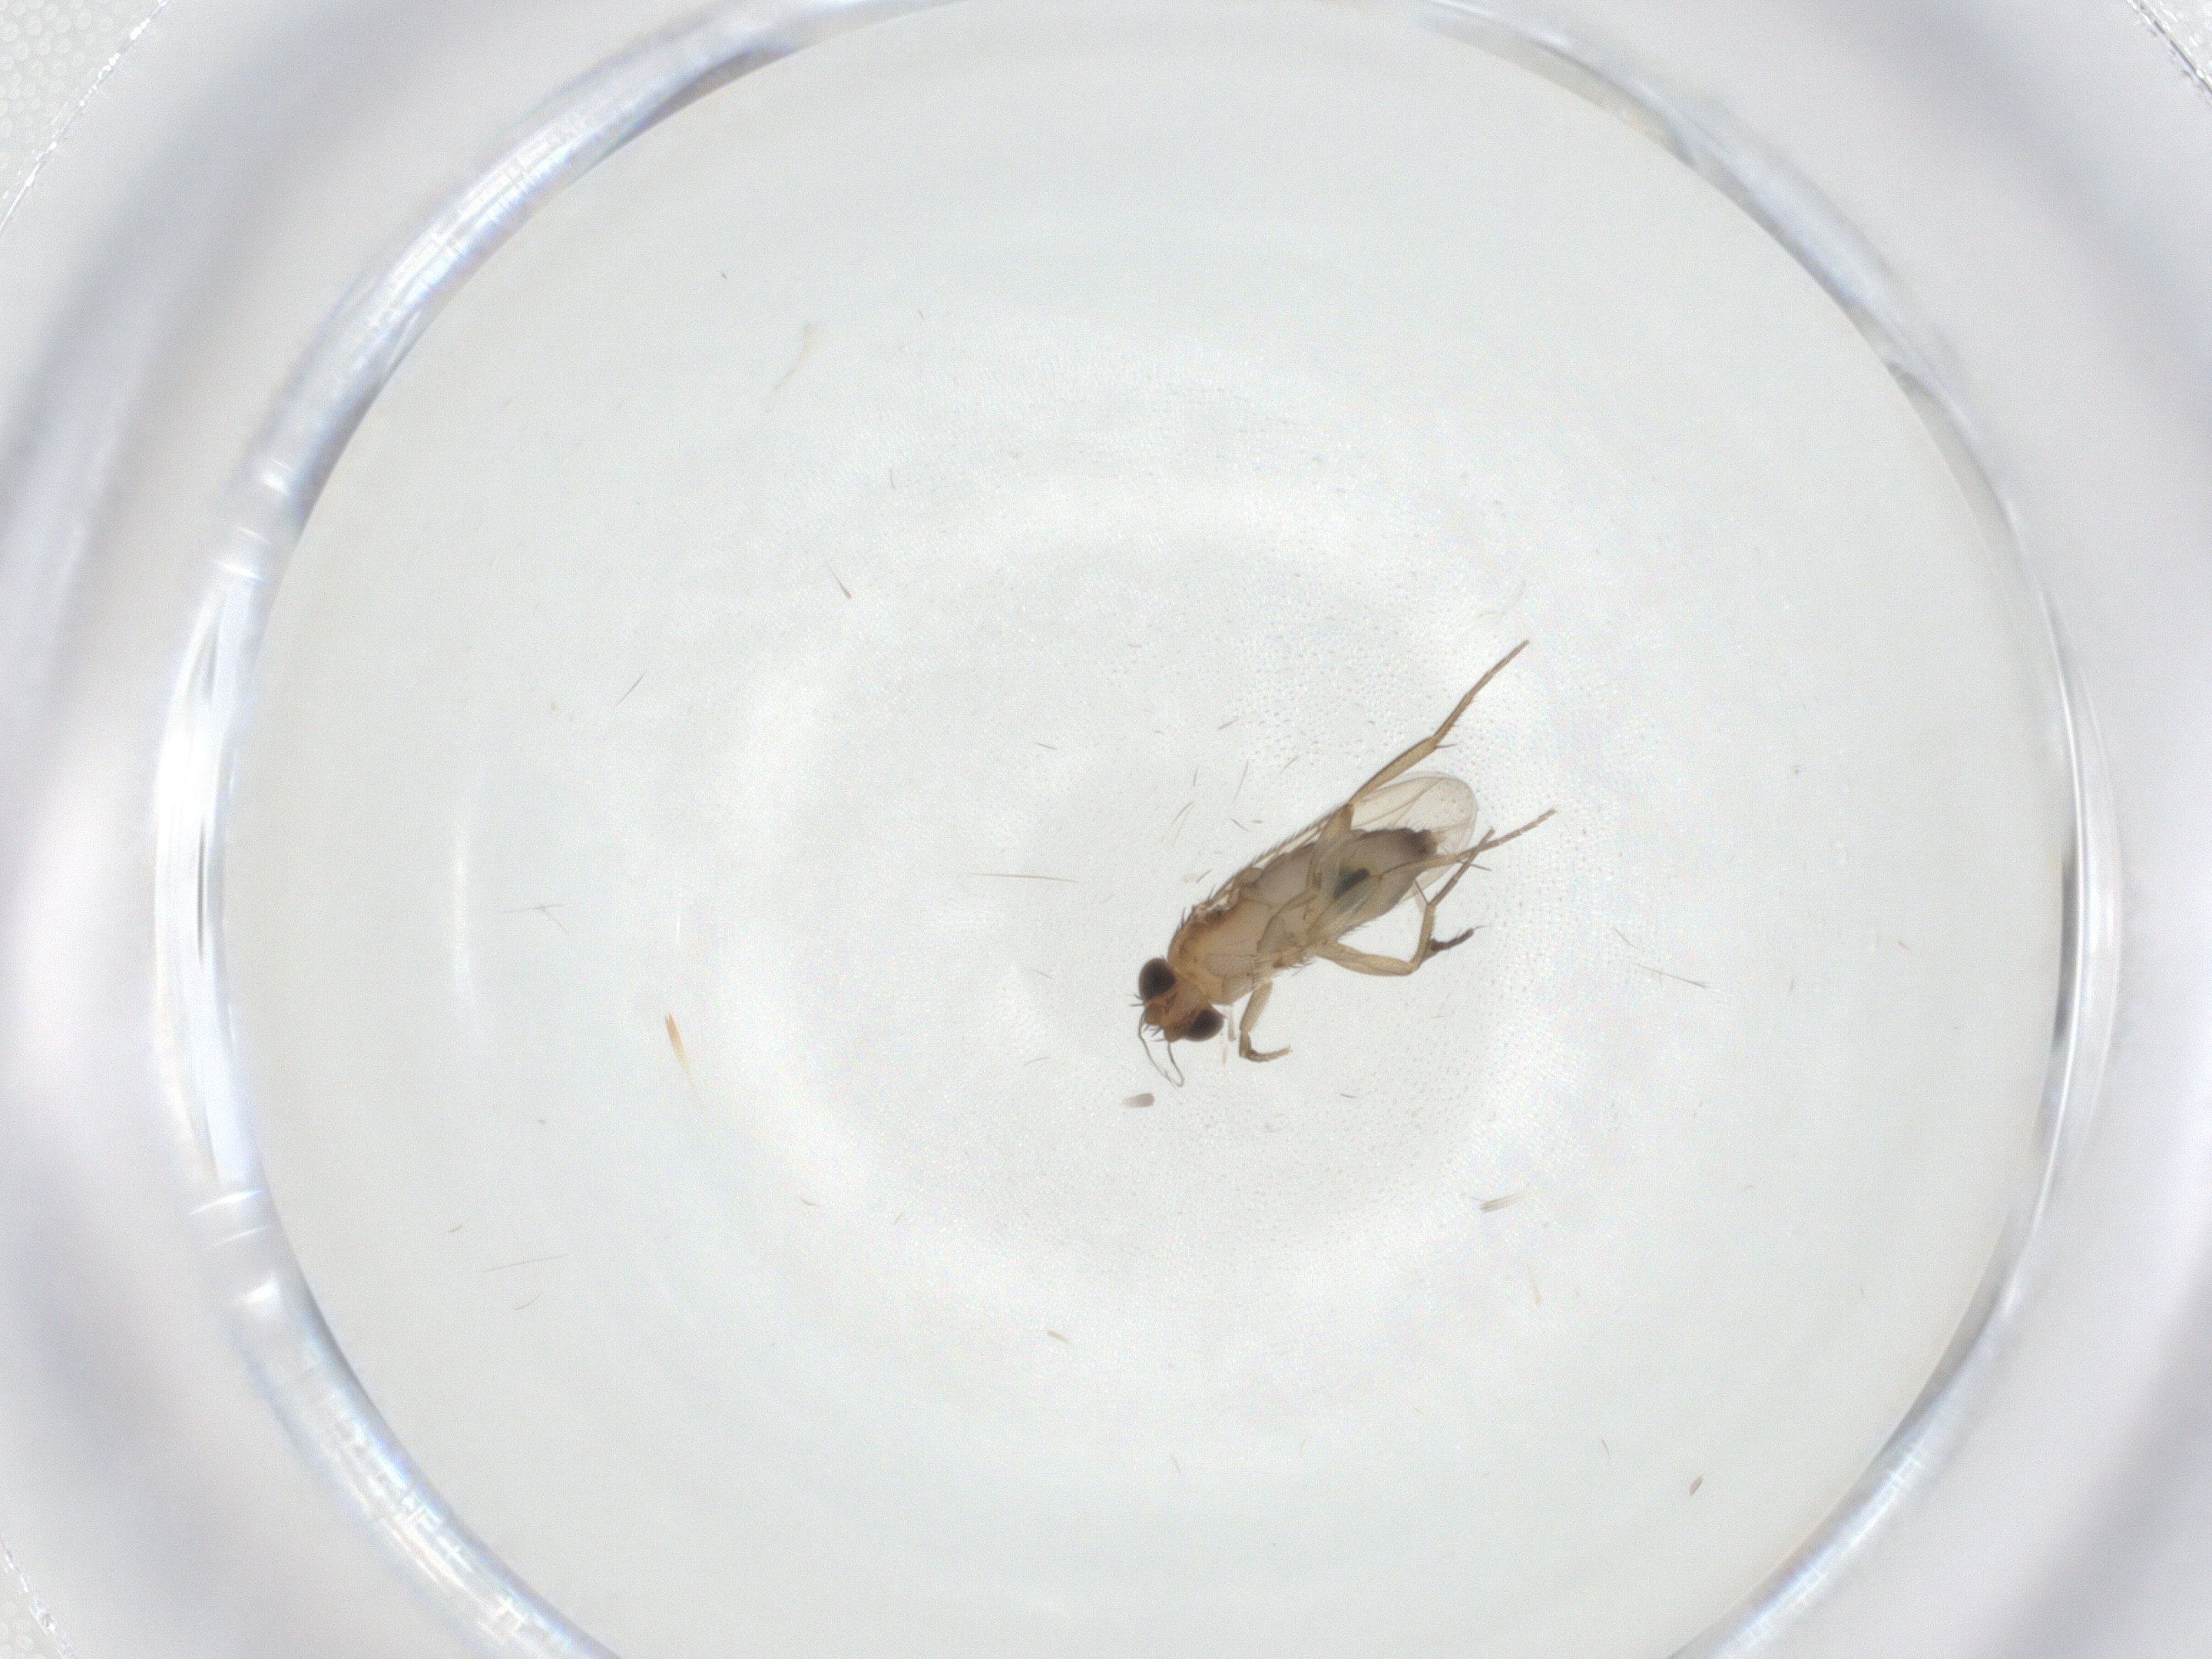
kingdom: Animalia
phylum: Arthropoda
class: Insecta
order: Diptera
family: Phoridae
